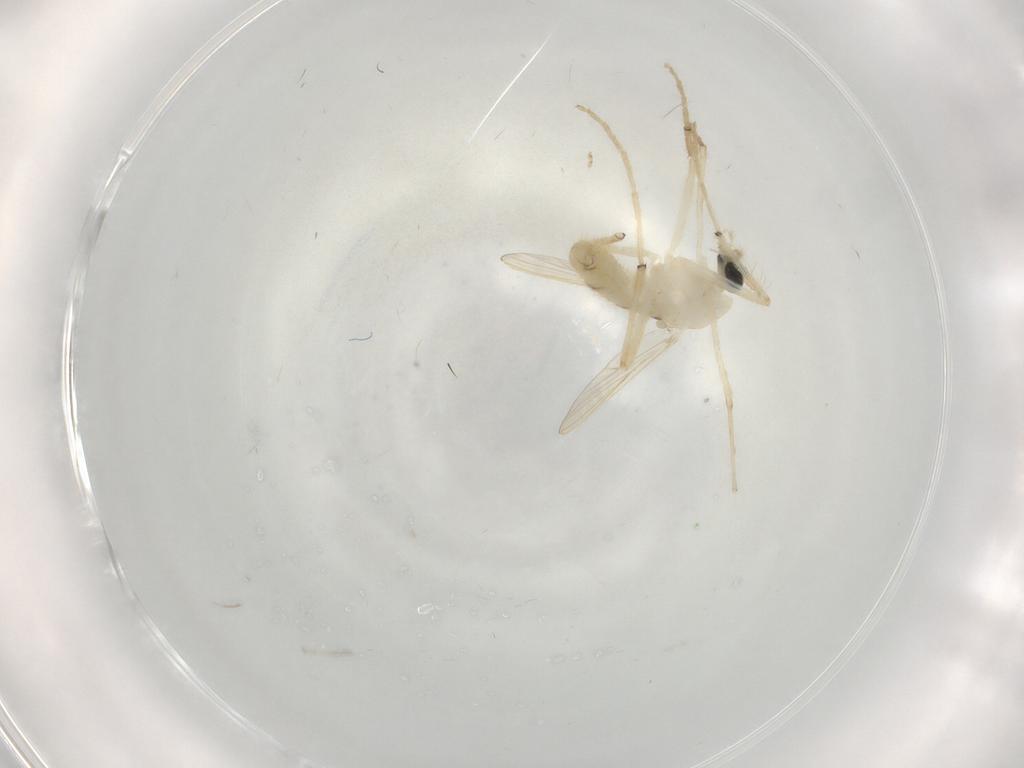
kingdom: Animalia
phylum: Arthropoda
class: Insecta
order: Diptera
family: Chironomidae
